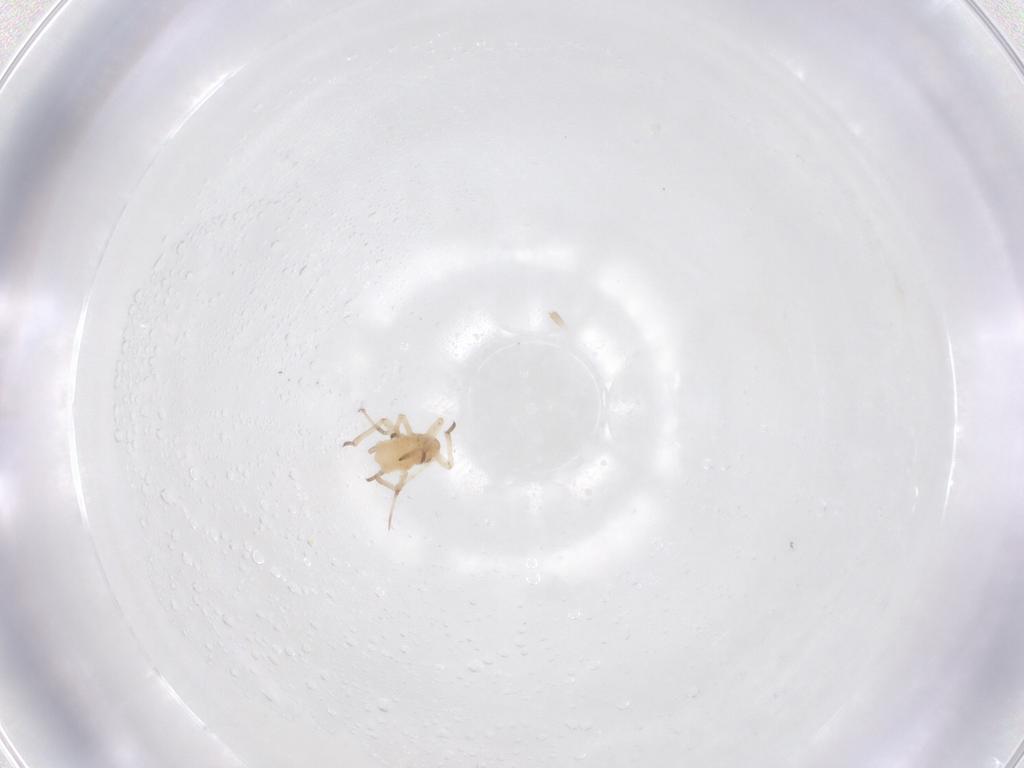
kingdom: Animalia
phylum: Arthropoda
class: Insecta
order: Hemiptera
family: Aphididae
